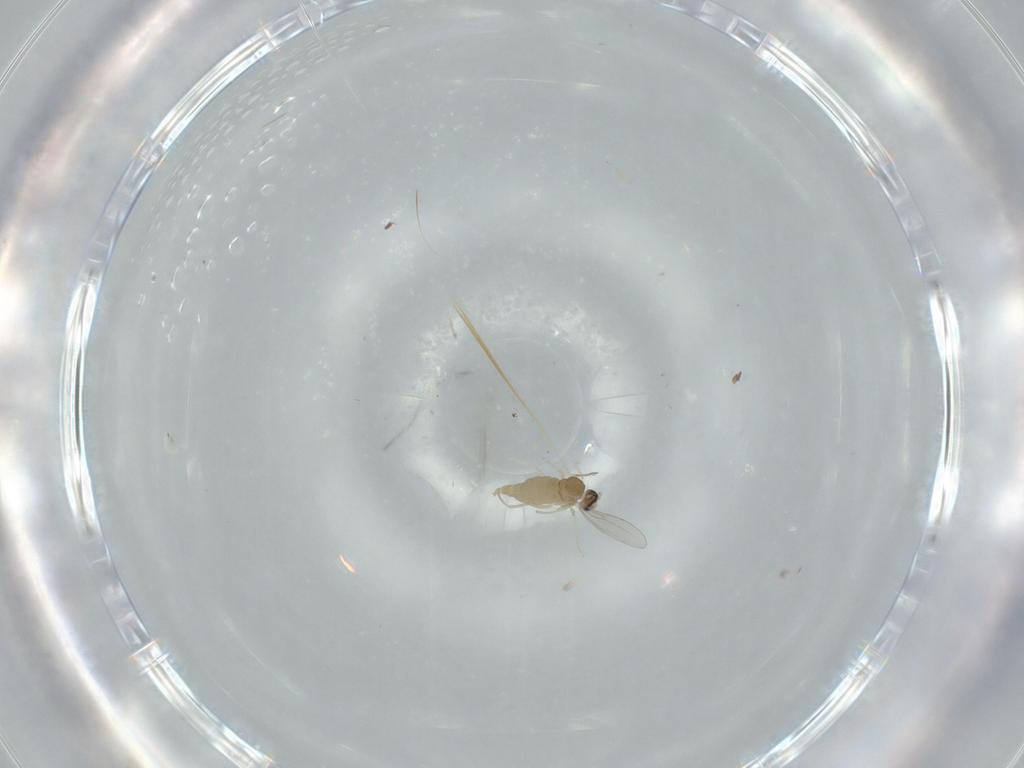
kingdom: Animalia
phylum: Arthropoda
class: Insecta
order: Diptera
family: Cecidomyiidae
